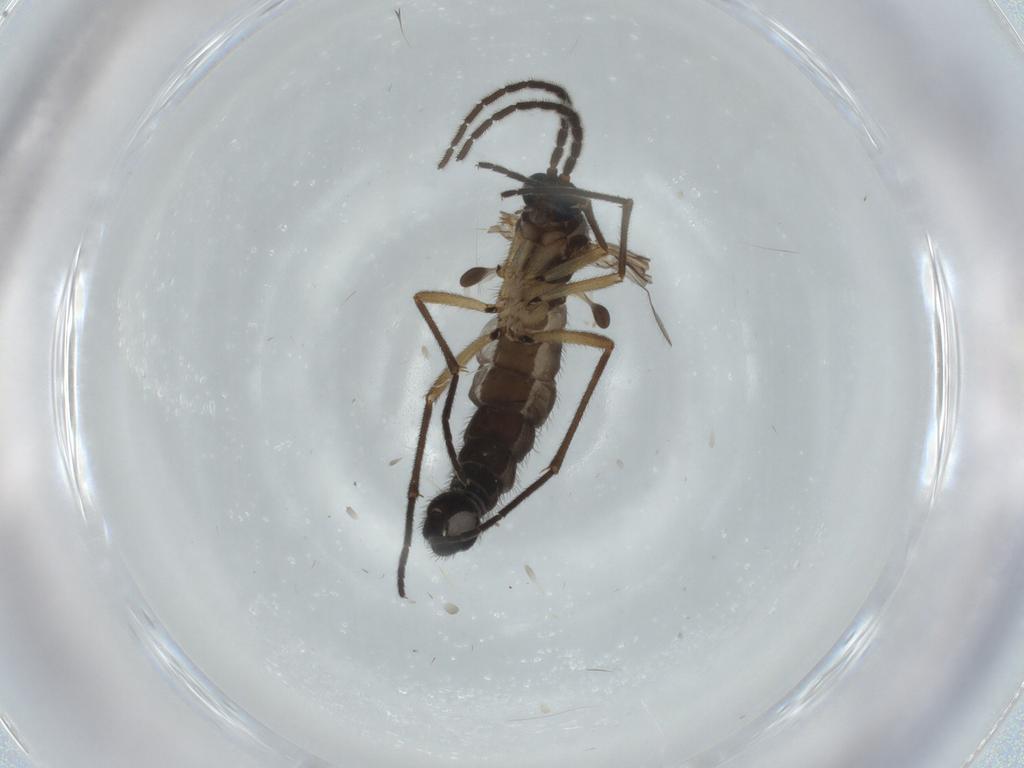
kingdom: Animalia
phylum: Arthropoda
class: Insecta
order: Diptera
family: Sciaridae
